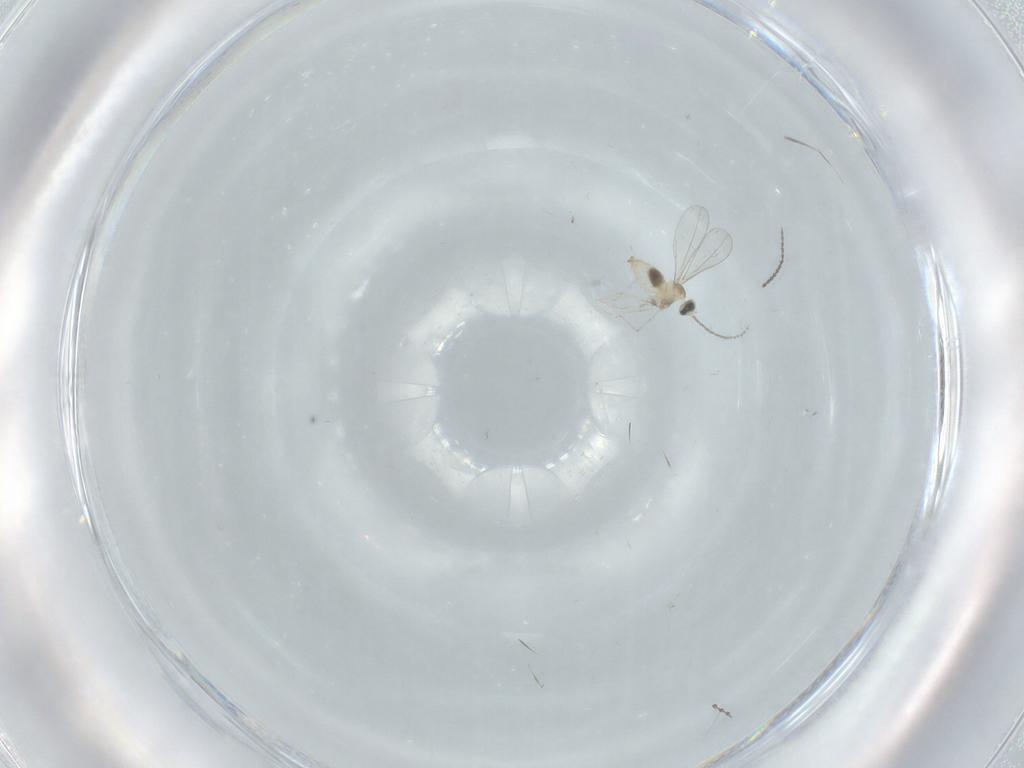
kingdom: Animalia
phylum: Arthropoda
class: Insecta
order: Diptera
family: Cecidomyiidae
